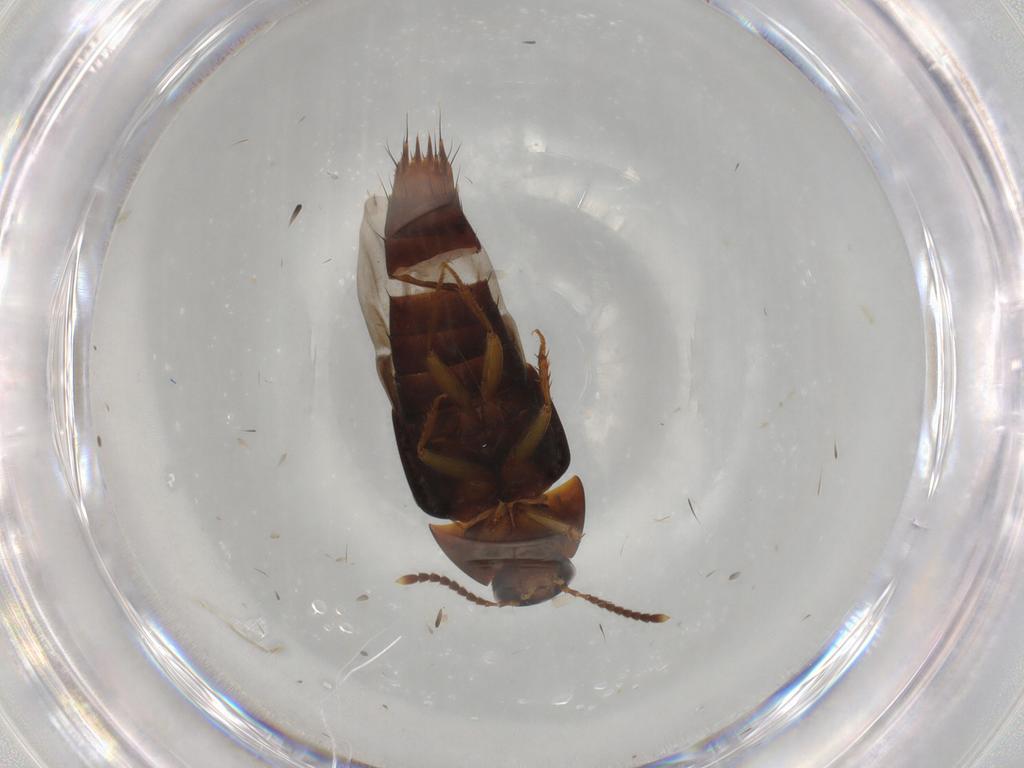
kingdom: Animalia
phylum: Arthropoda
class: Insecta
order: Coleoptera
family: Staphylinidae
